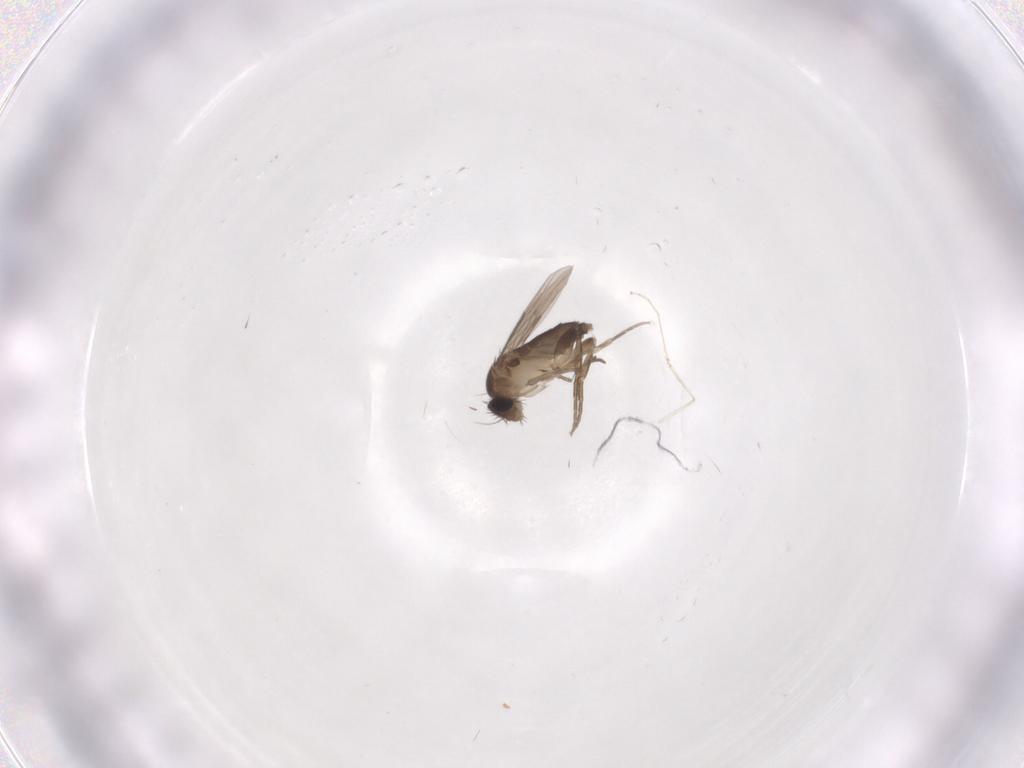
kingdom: Animalia
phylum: Arthropoda
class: Insecta
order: Diptera
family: Phoridae
